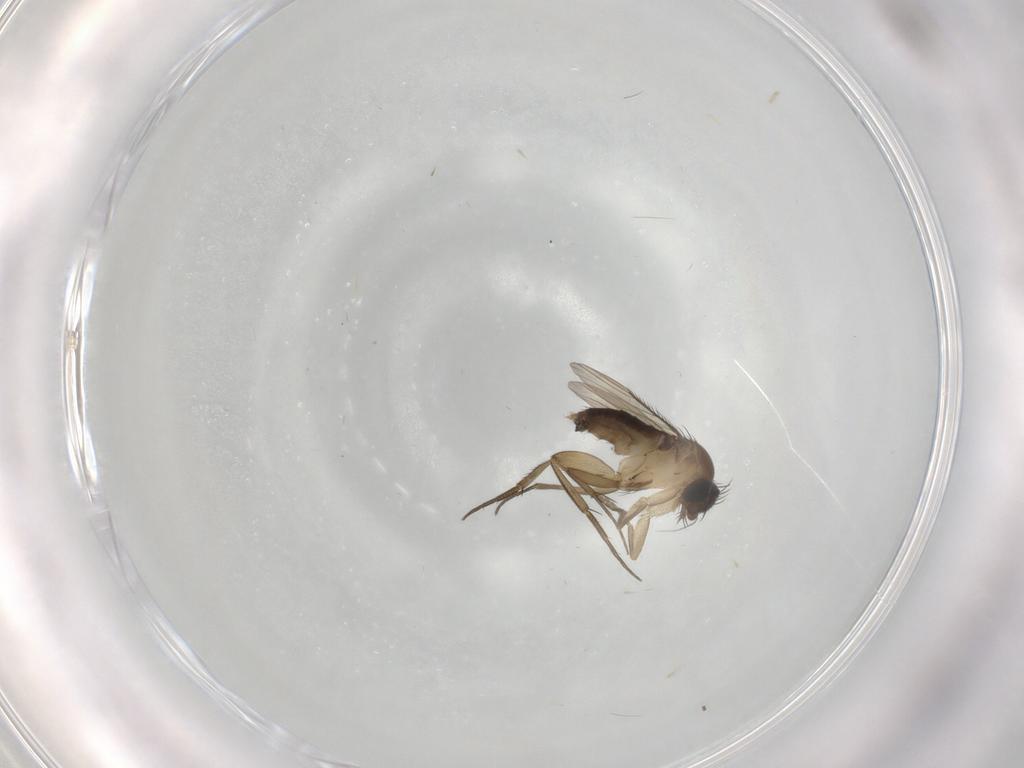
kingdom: Animalia
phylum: Arthropoda
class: Insecta
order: Diptera
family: Phoridae
